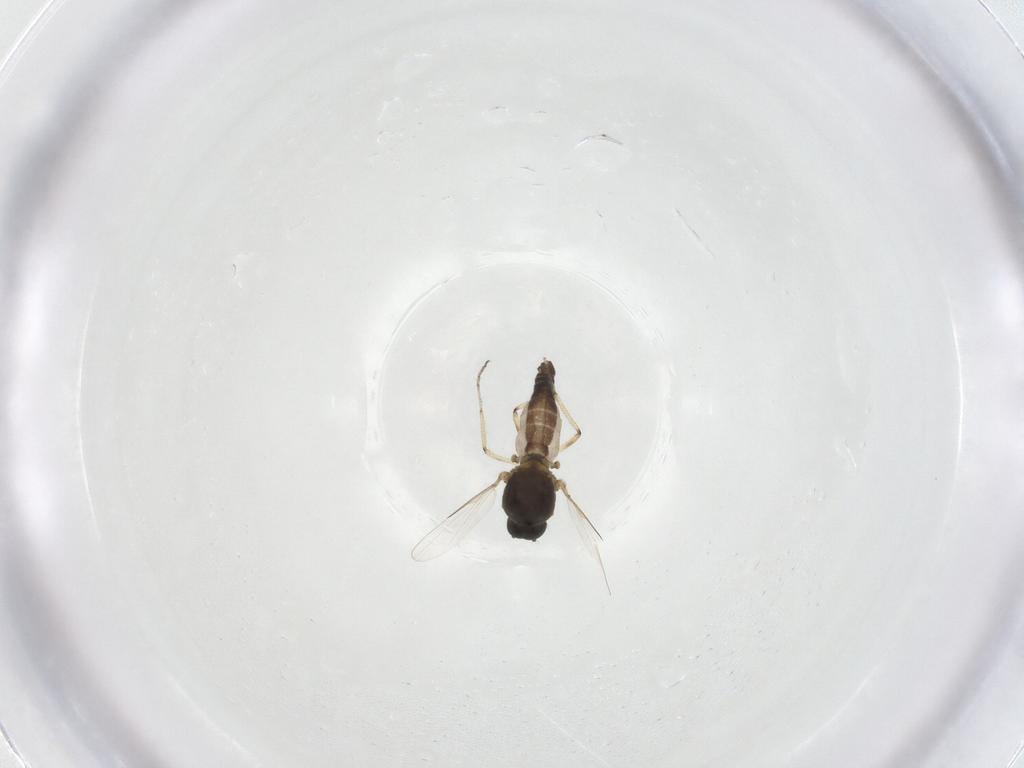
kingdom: Animalia
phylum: Arthropoda
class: Insecta
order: Diptera
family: Ceratopogonidae
